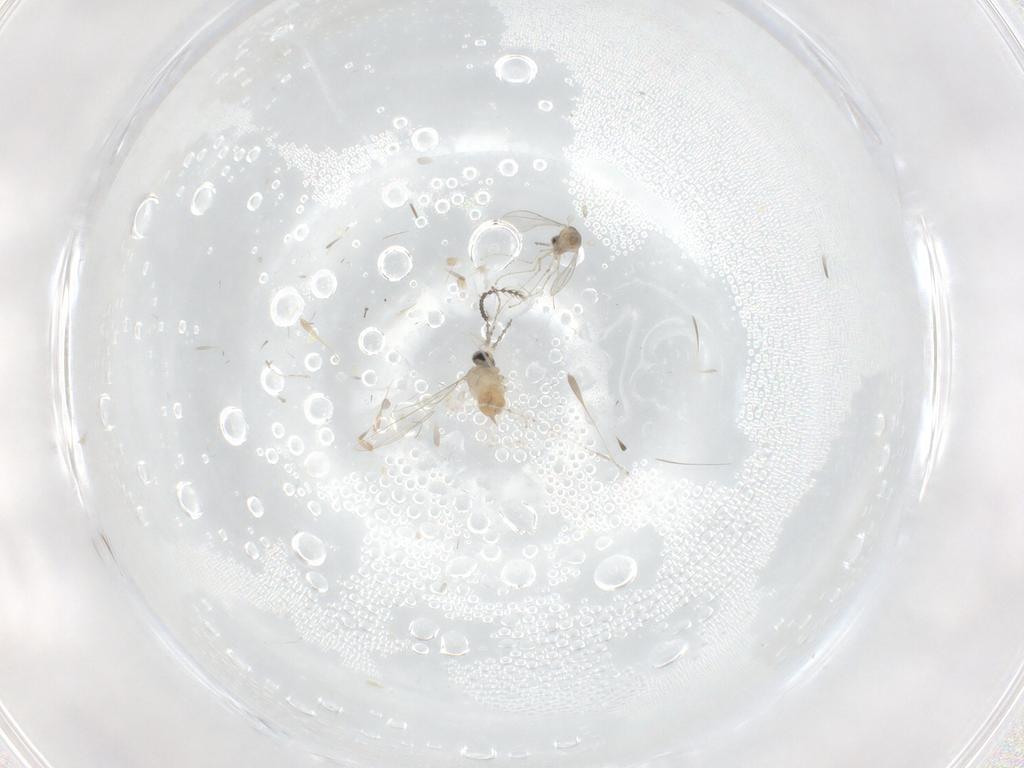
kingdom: Animalia
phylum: Arthropoda
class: Insecta
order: Diptera
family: Cecidomyiidae
